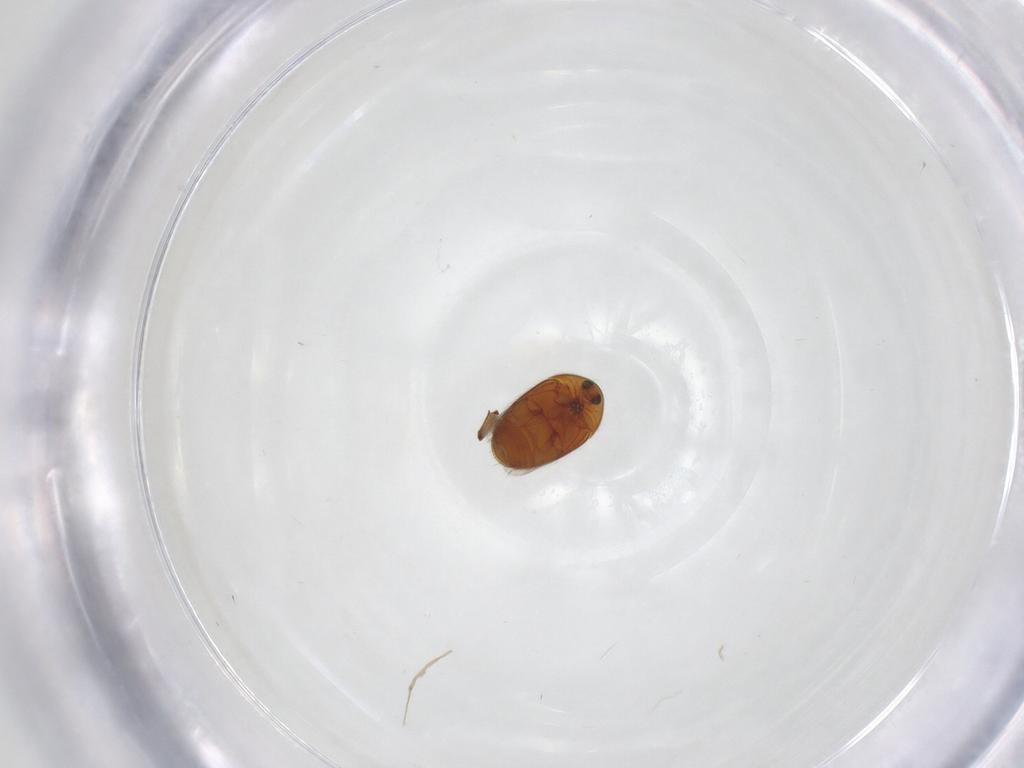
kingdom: Animalia
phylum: Arthropoda
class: Insecta
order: Coleoptera
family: Corylophidae
